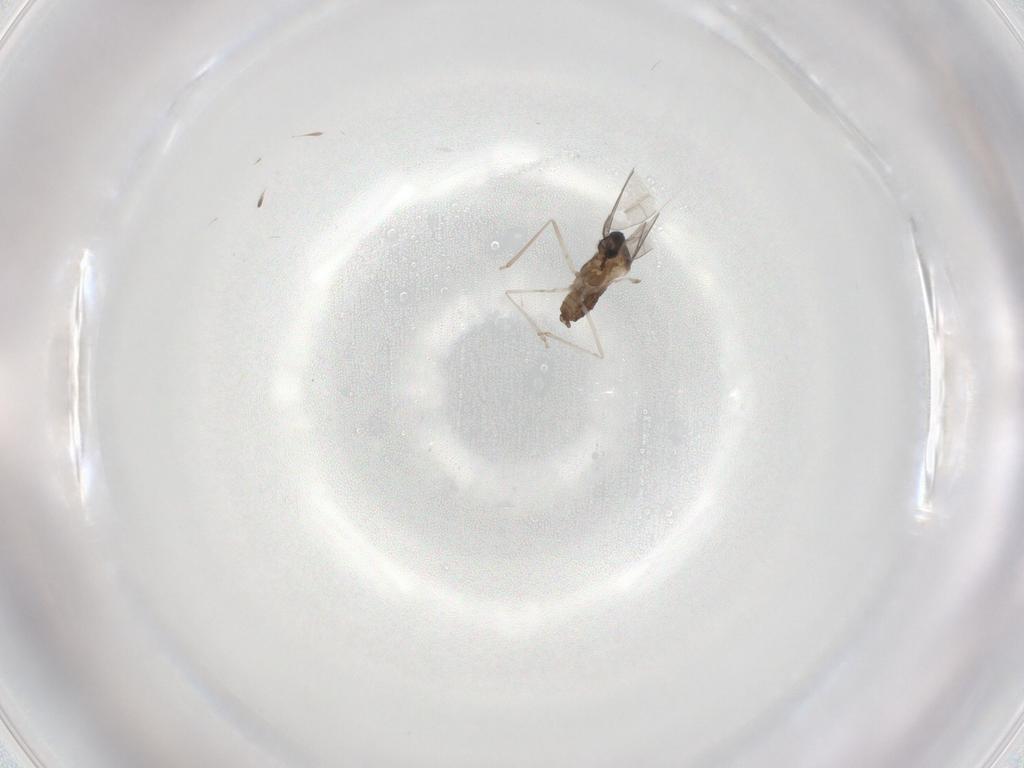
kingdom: Animalia
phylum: Arthropoda
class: Insecta
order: Diptera
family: Cecidomyiidae
